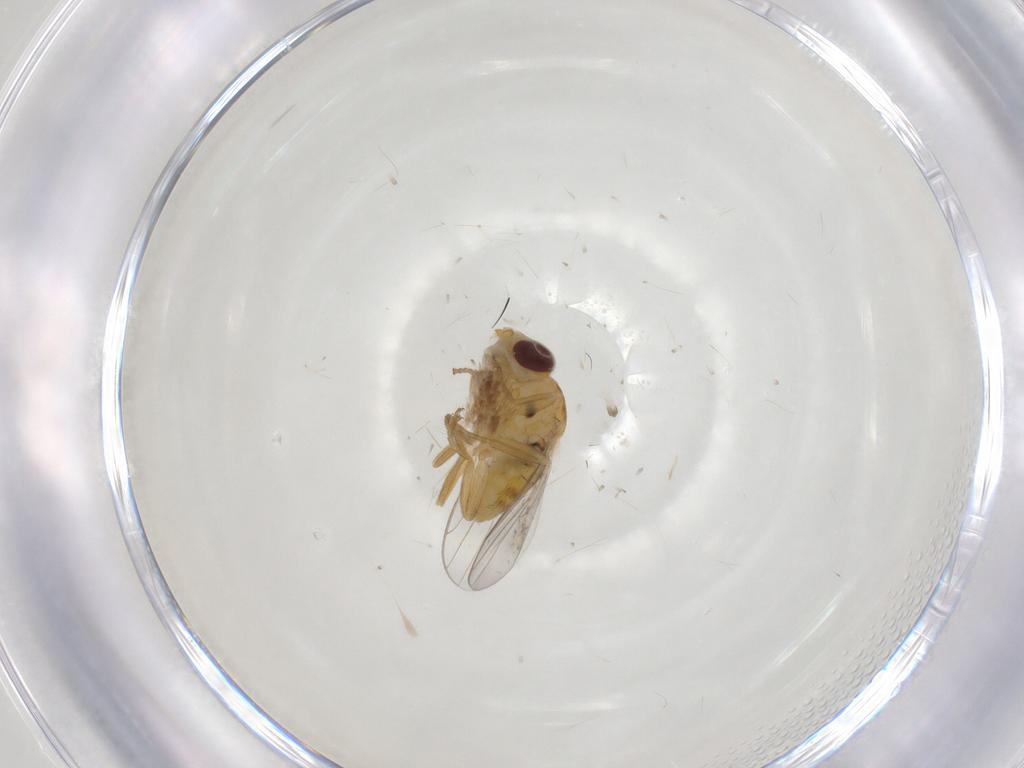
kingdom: Animalia
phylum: Arthropoda
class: Insecta
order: Diptera
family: Chloropidae
